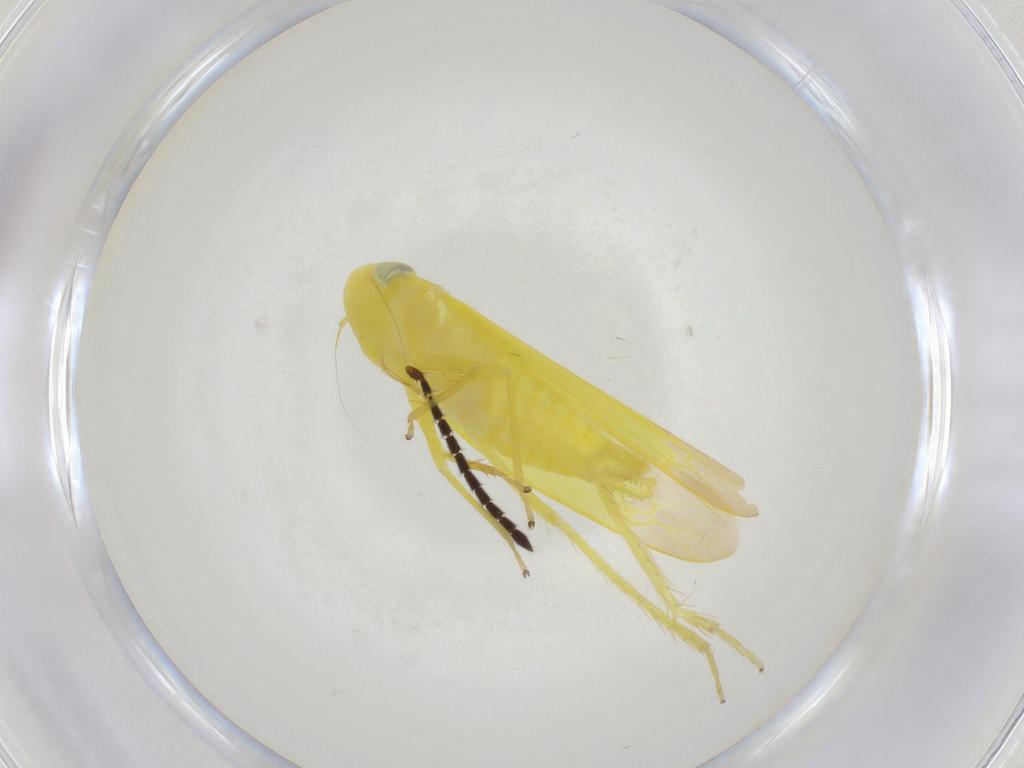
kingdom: Animalia
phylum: Arthropoda
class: Insecta
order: Hemiptera
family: Cicadellidae
